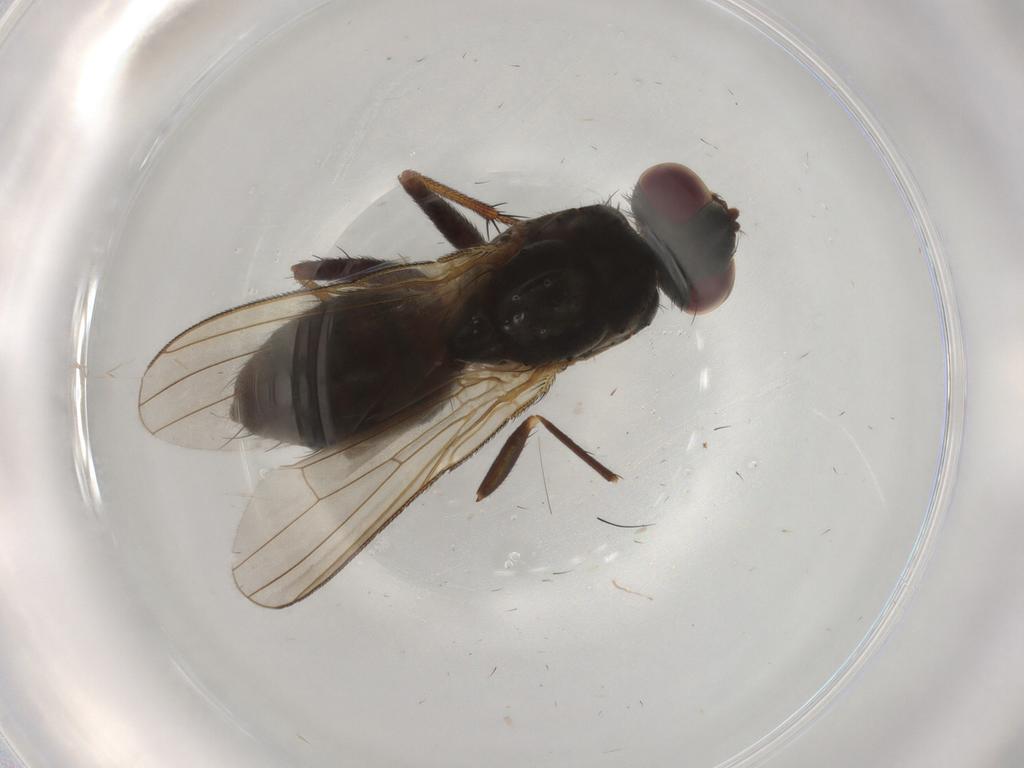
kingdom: Animalia
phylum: Arthropoda
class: Insecta
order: Diptera
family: Muscidae
